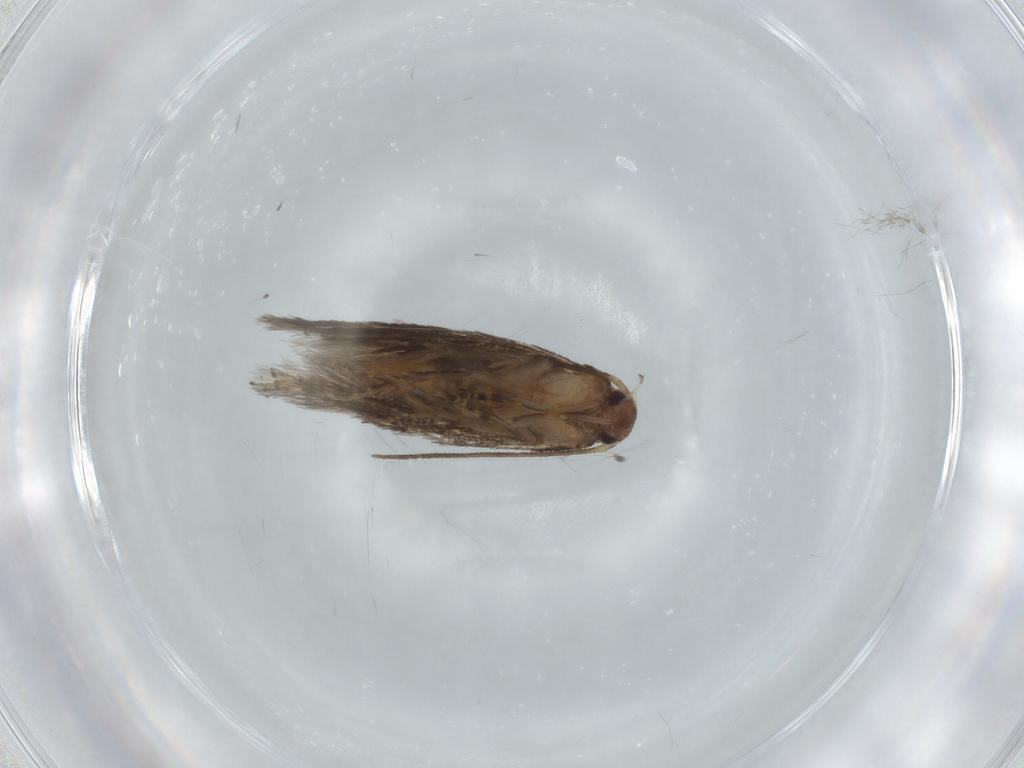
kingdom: Animalia
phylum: Arthropoda
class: Insecta
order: Lepidoptera
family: Elachistidae
